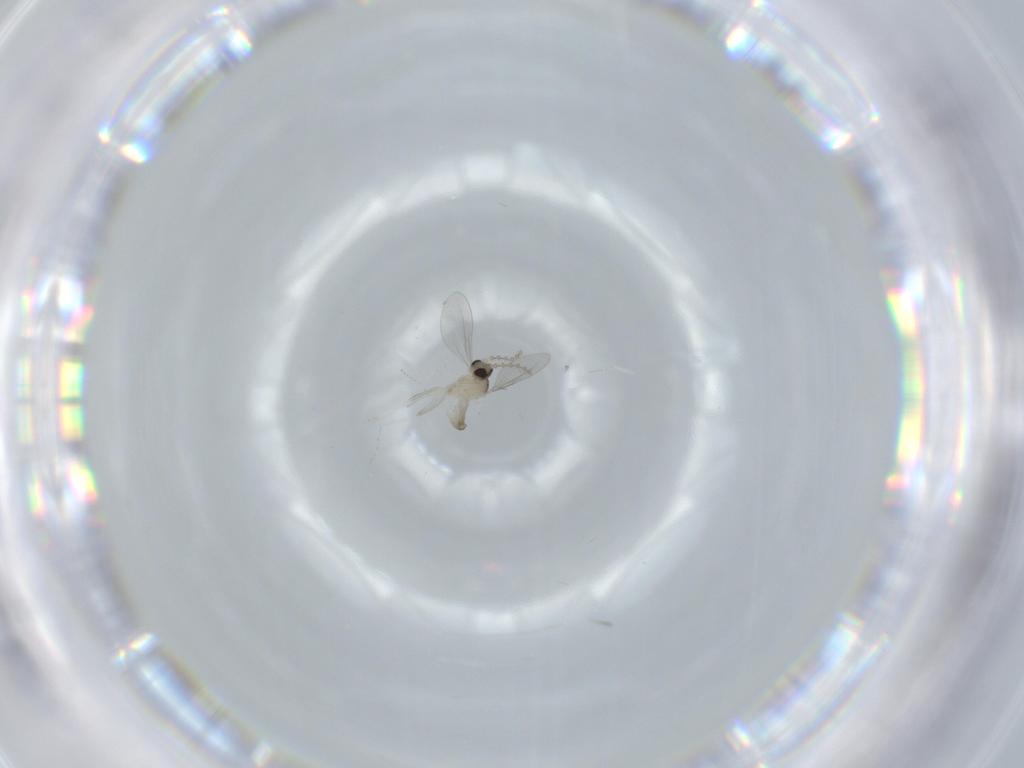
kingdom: Animalia
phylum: Arthropoda
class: Insecta
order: Diptera
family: Cecidomyiidae
